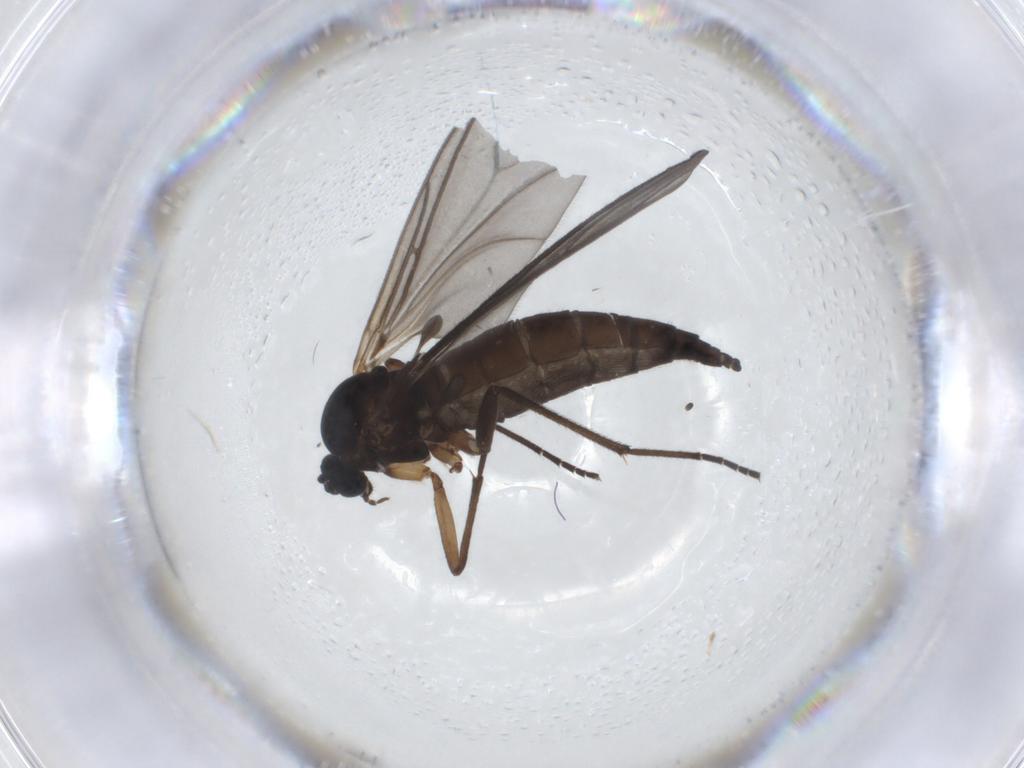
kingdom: Animalia
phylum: Arthropoda
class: Insecta
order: Diptera
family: Sciaridae
